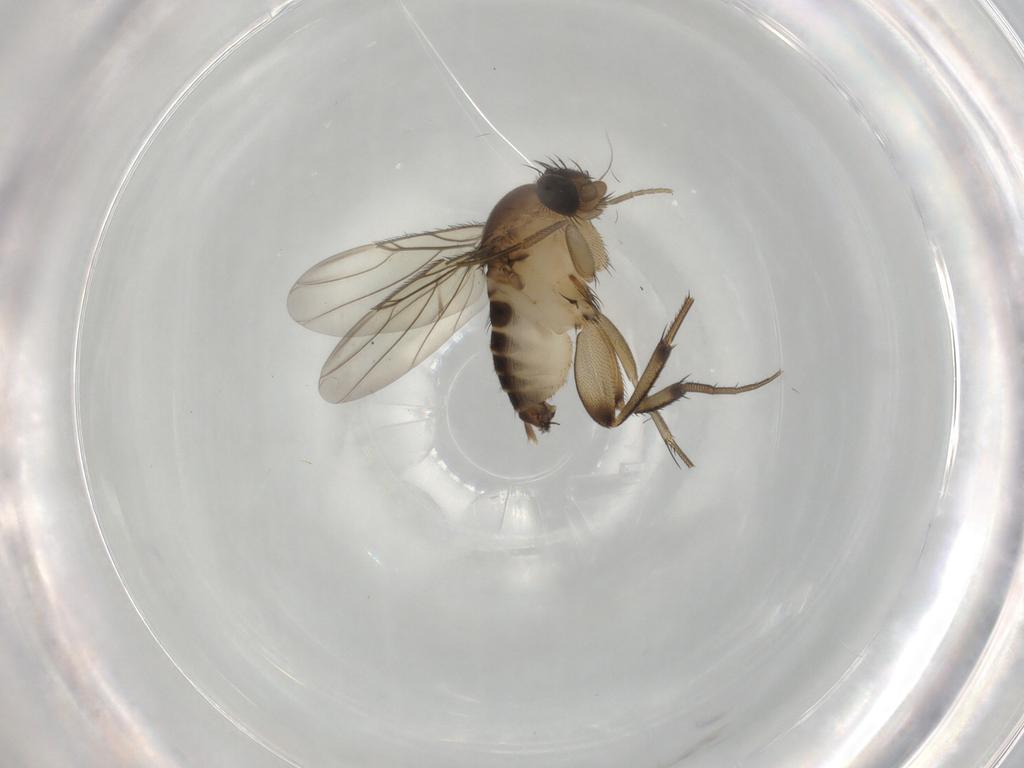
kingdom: Animalia
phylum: Arthropoda
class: Insecta
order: Diptera
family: Phoridae
